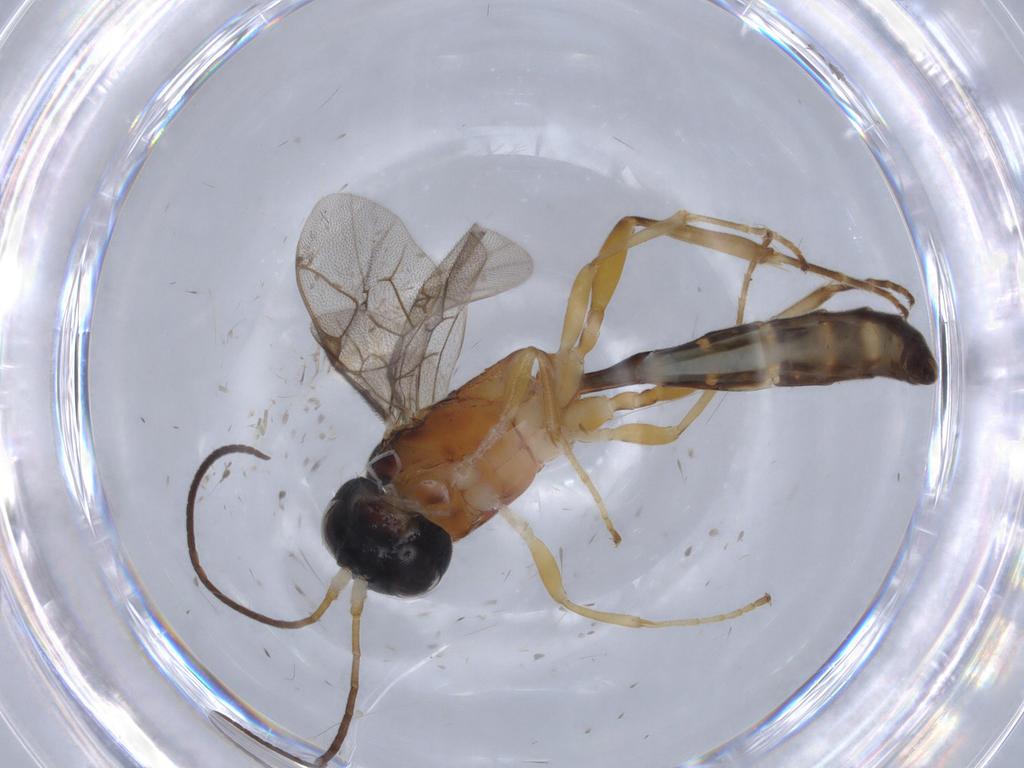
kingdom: Animalia
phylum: Arthropoda
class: Insecta
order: Hymenoptera
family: Ichneumonidae
